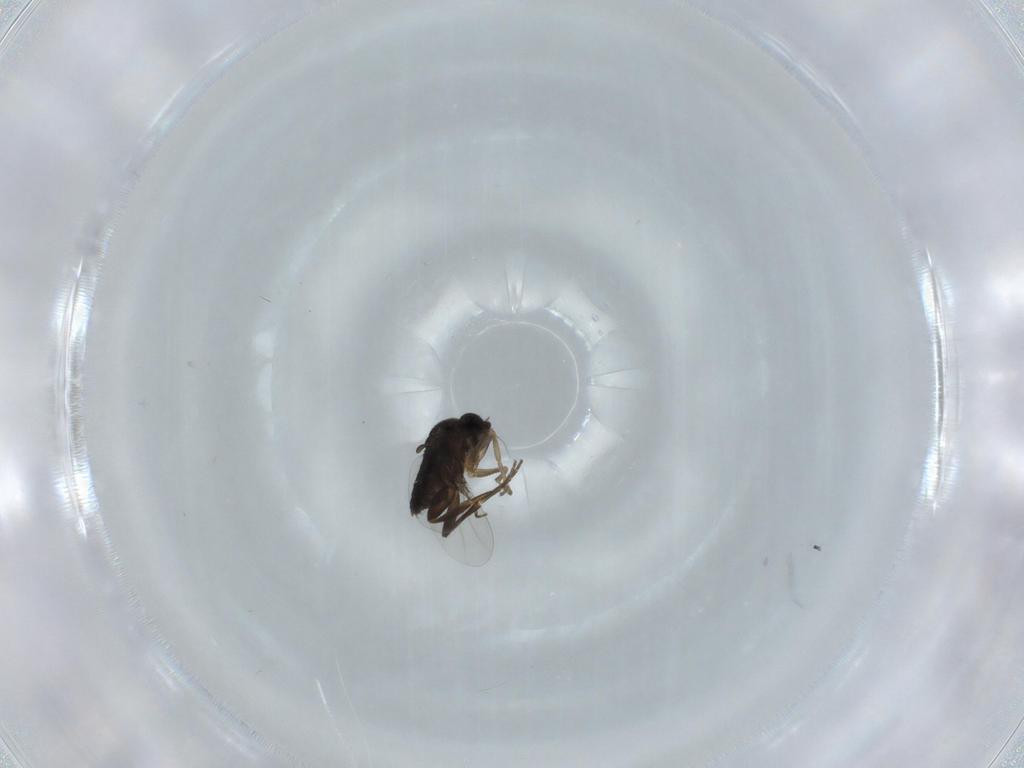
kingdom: Animalia
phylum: Arthropoda
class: Insecta
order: Diptera
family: Phoridae
